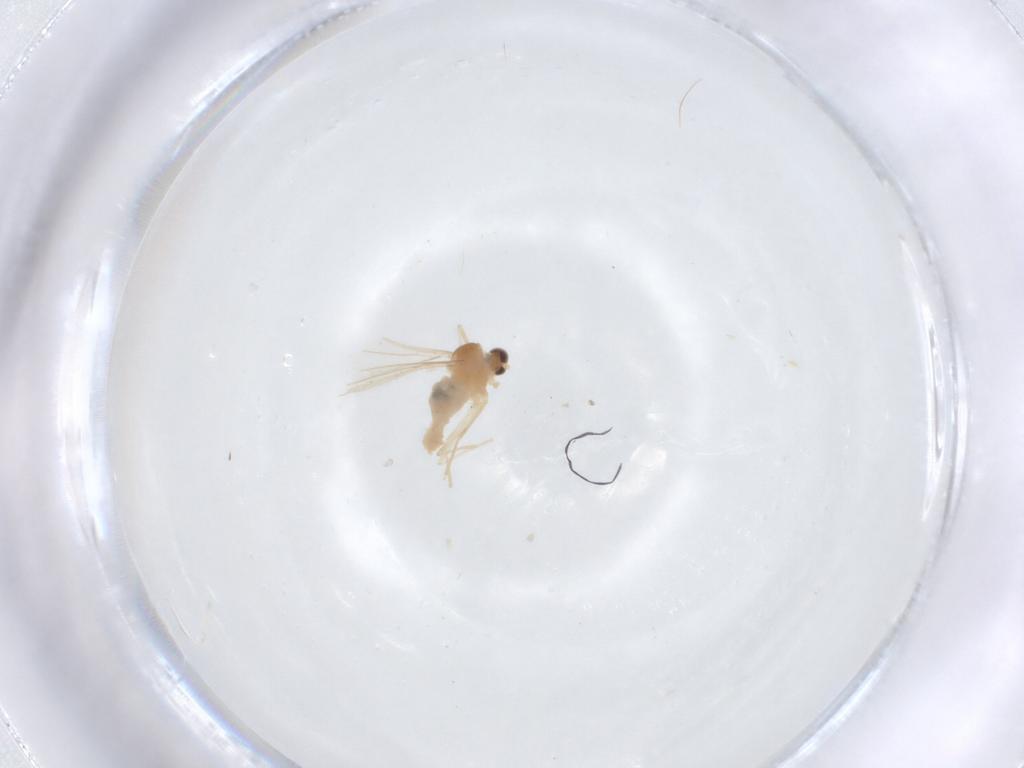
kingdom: Animalia
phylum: Arthropoda
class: Insecta
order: Diptera
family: Cecidomyiidae
